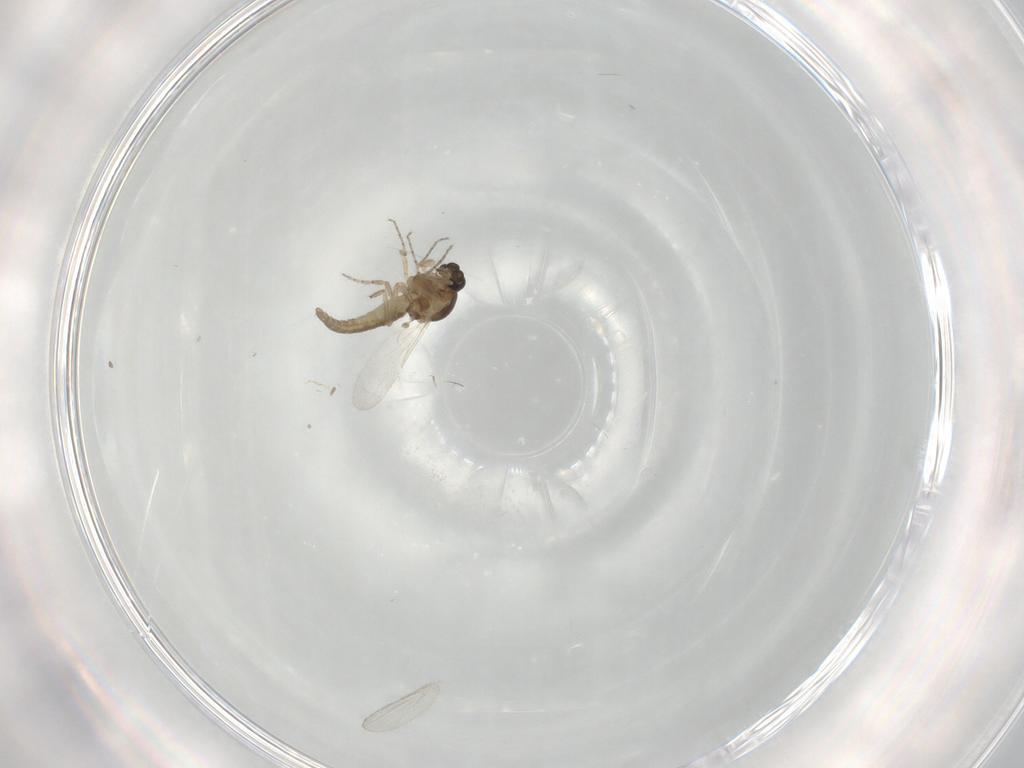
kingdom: Animalia
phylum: Arthropoda
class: Insecta
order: Diptera
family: Ceratopogonidae
